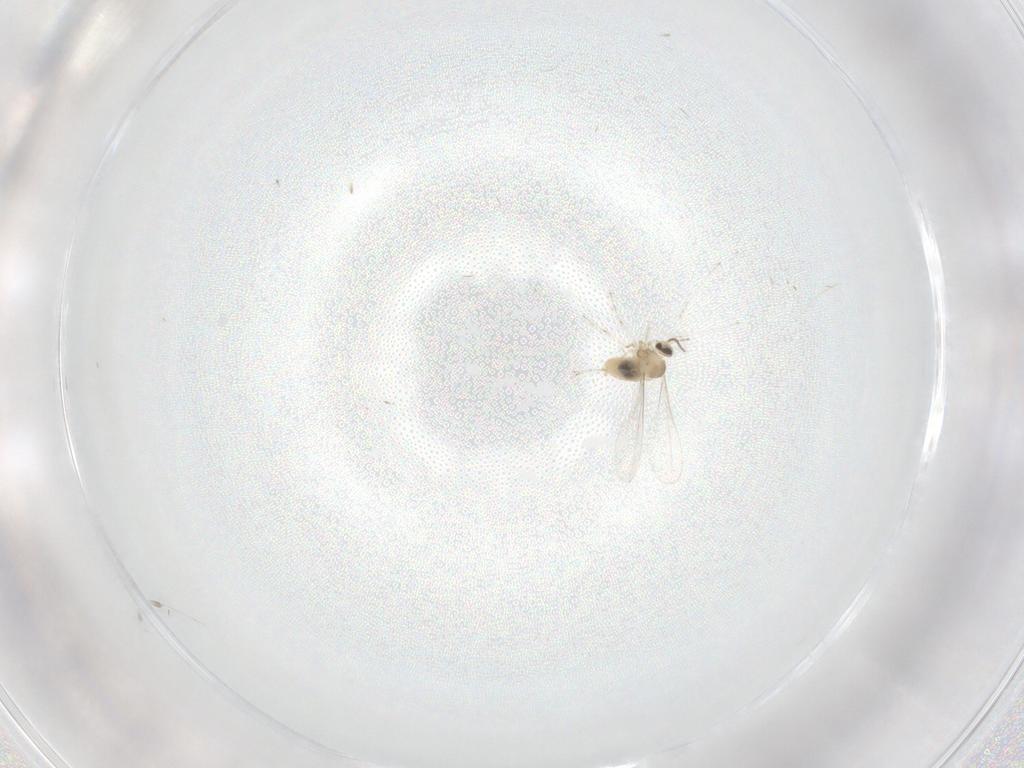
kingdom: Animalia
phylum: Arthropoda
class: Insecta
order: Diptera
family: Cecidomyiidae
